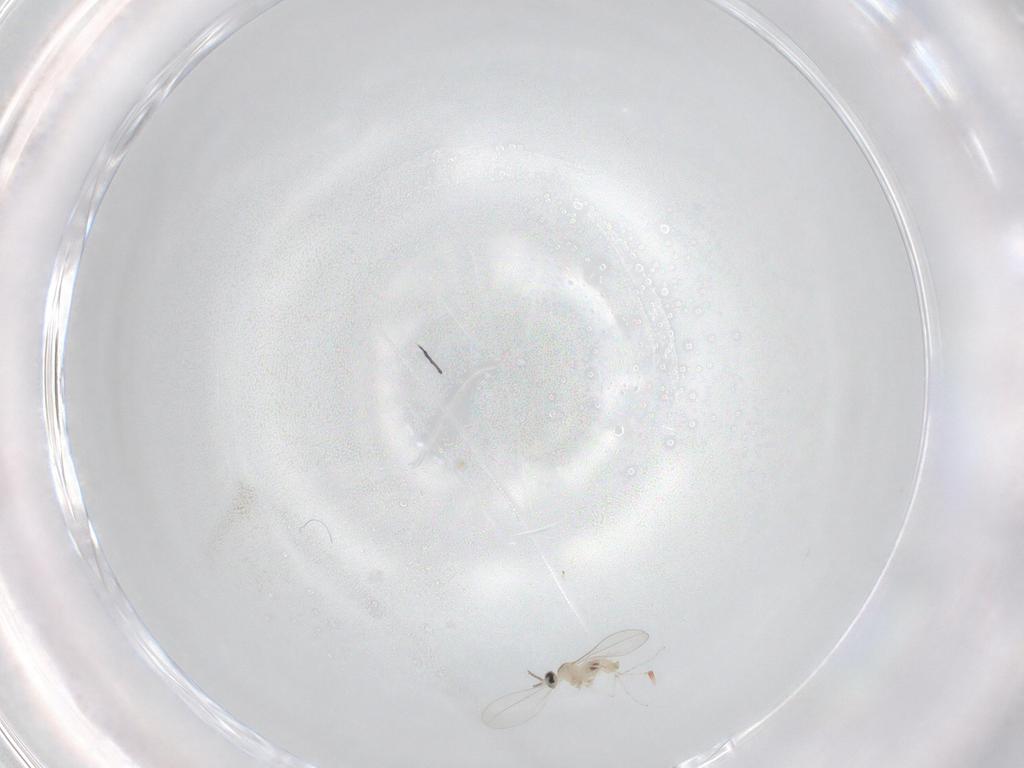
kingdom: Animalia
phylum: Arthropoda
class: Insecta
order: Diptera
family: Cecidomyiidae
